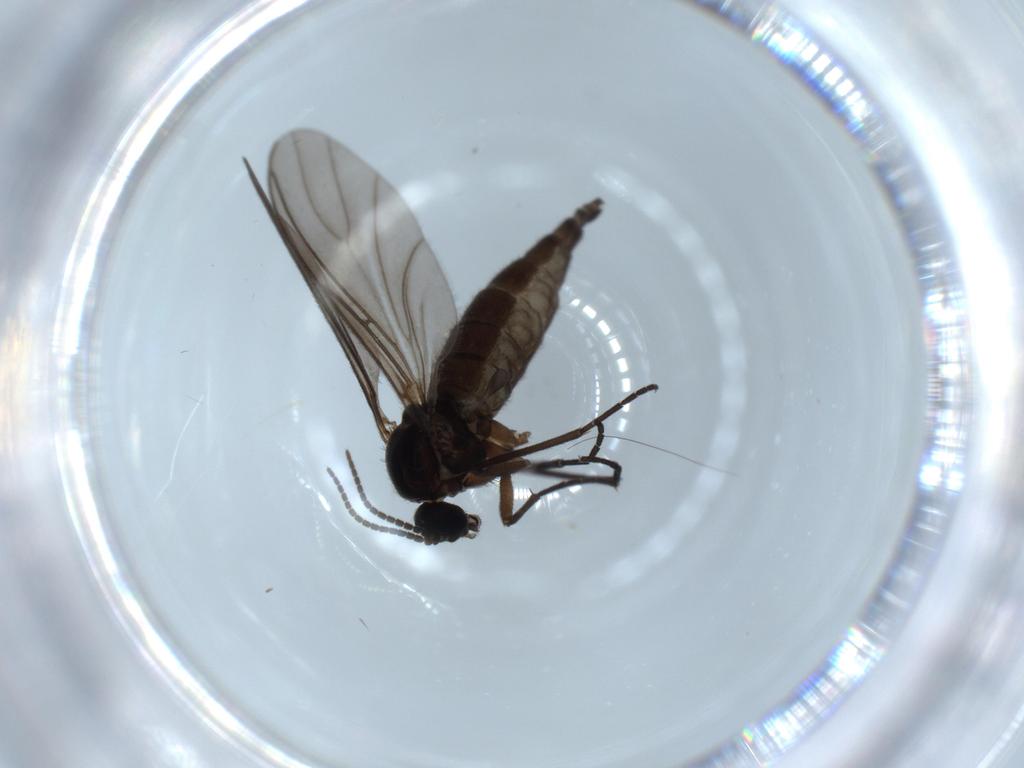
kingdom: Animalia
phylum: Arthropoda
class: Insecta
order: Diptera
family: Sciaridae
